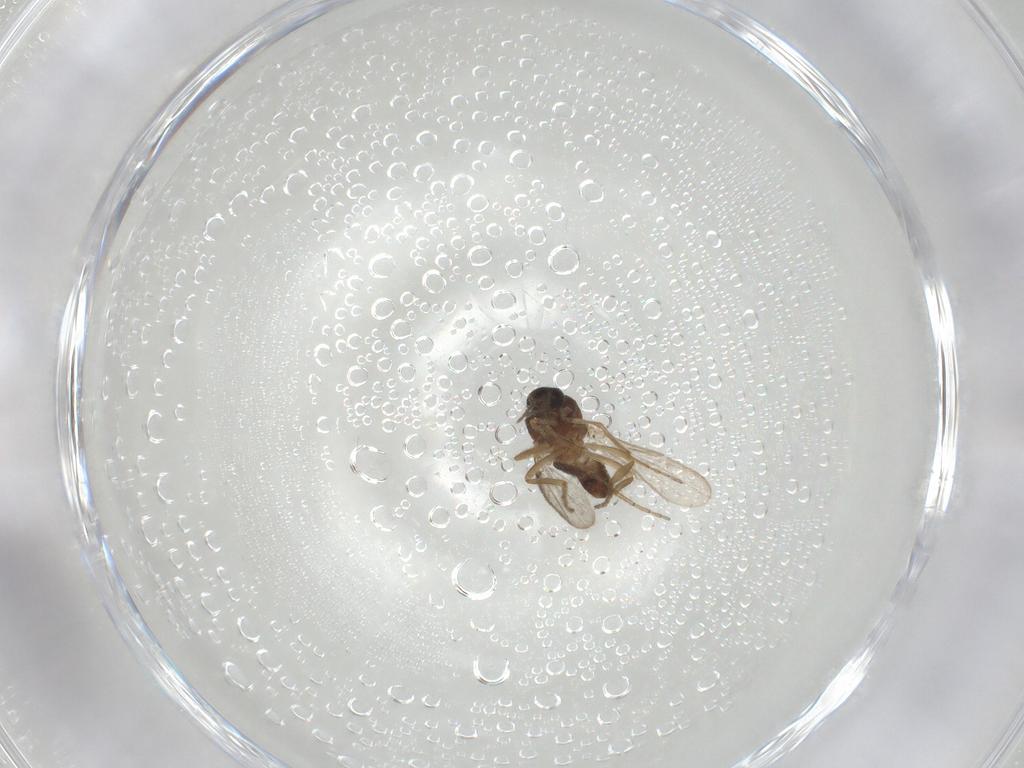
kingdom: Animalia
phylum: Arthropoda
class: Insecta
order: Diptera
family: Ceratopogonidae
